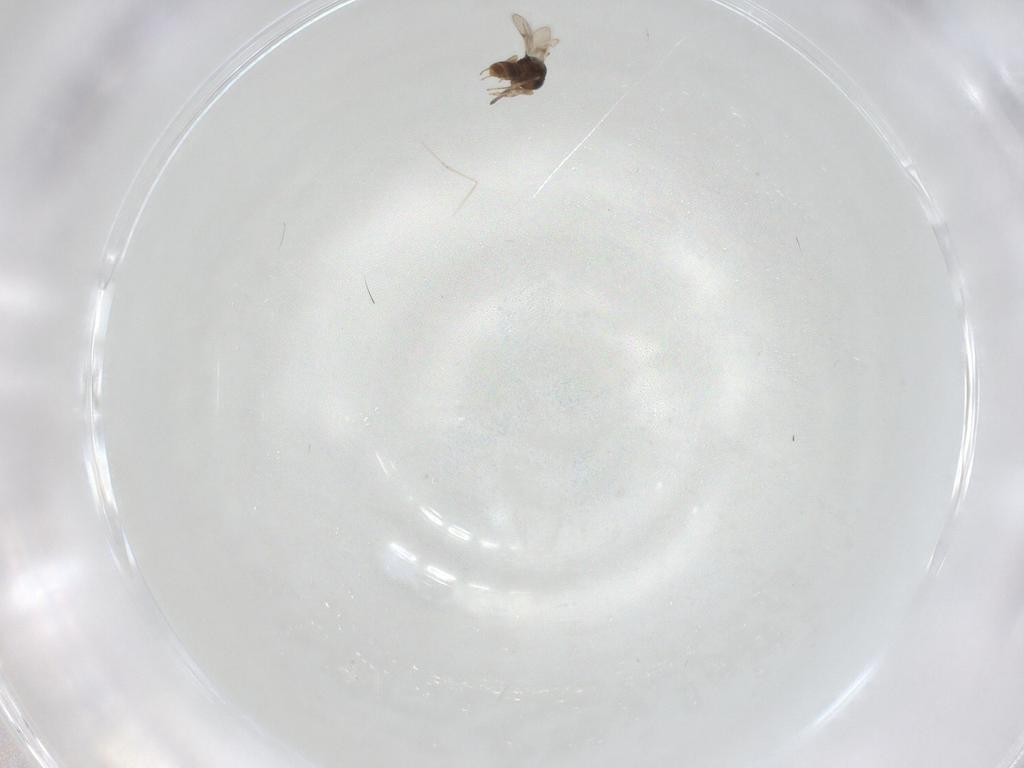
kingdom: Animalia
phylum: Arthropoda
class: Insecta
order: Hymenoptera
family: Scelionidae
